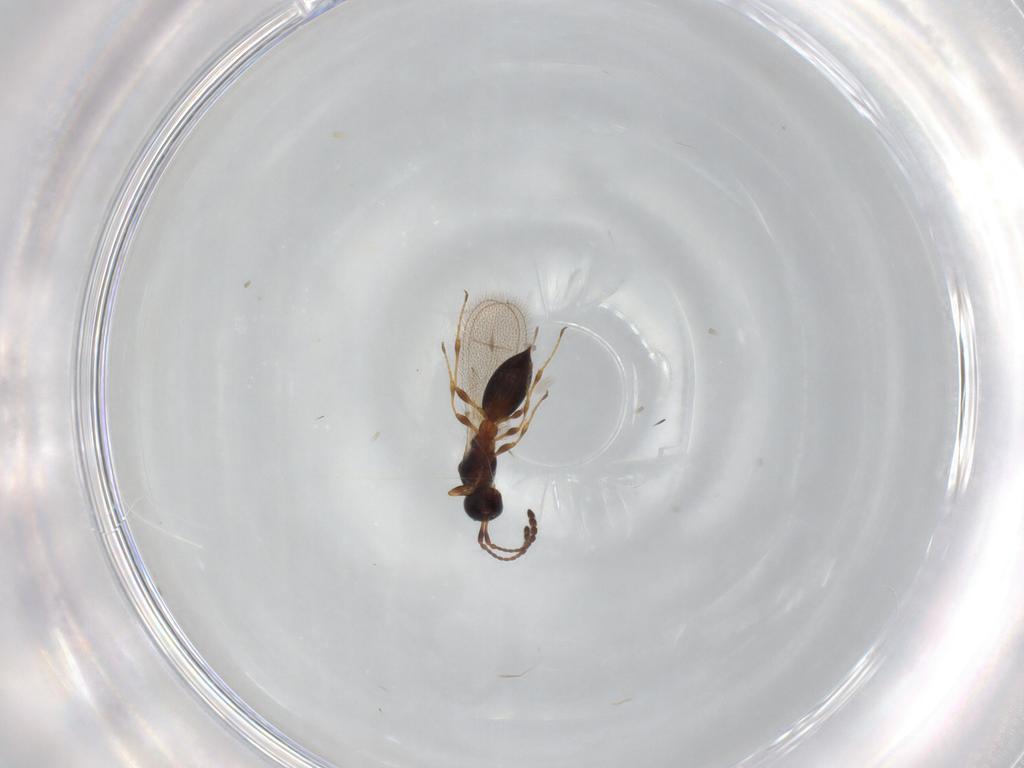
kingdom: Animalia
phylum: Arthropoda
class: Insecta
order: Hymenoptera
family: Diapriidae
